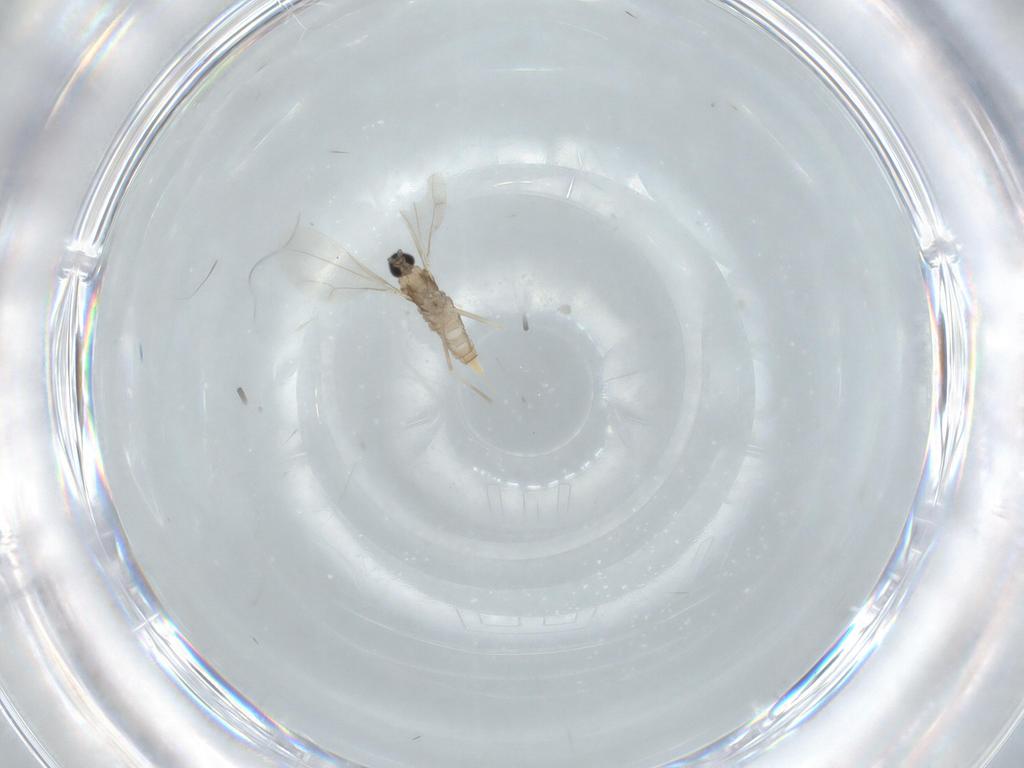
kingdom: Animalia
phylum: Arthropoda
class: Insecta
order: Diptera
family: Cecidomyiidae
